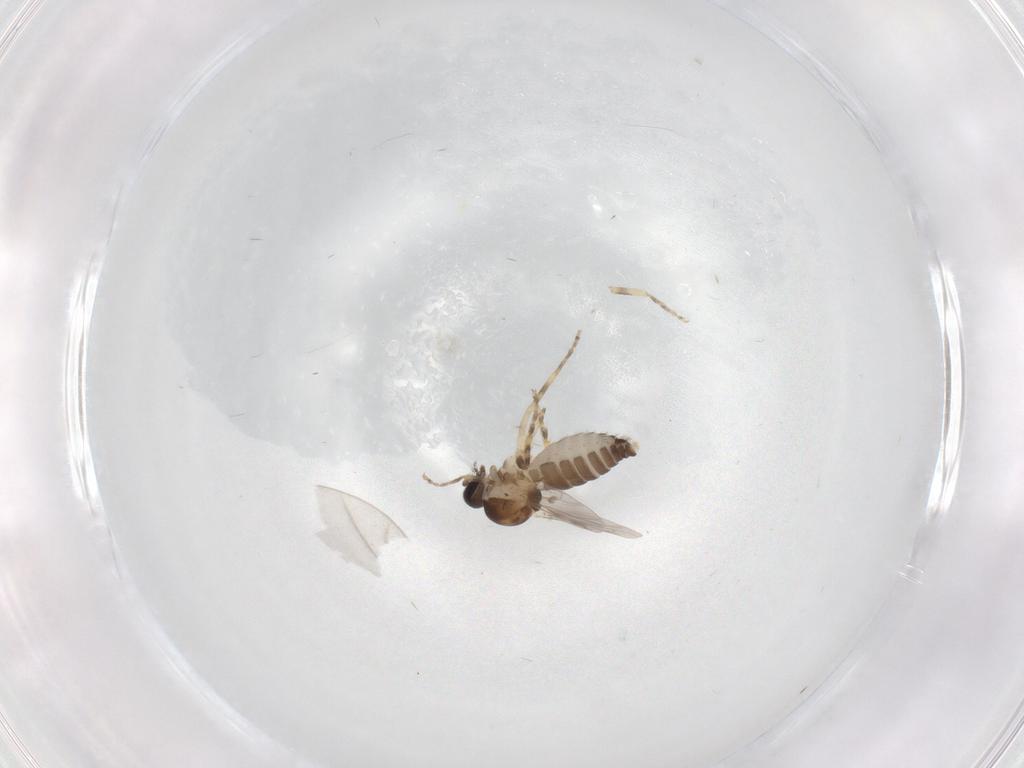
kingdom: Animalia
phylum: Arthropoda
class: Insecta
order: Diptera
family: Ceratopogonidae
